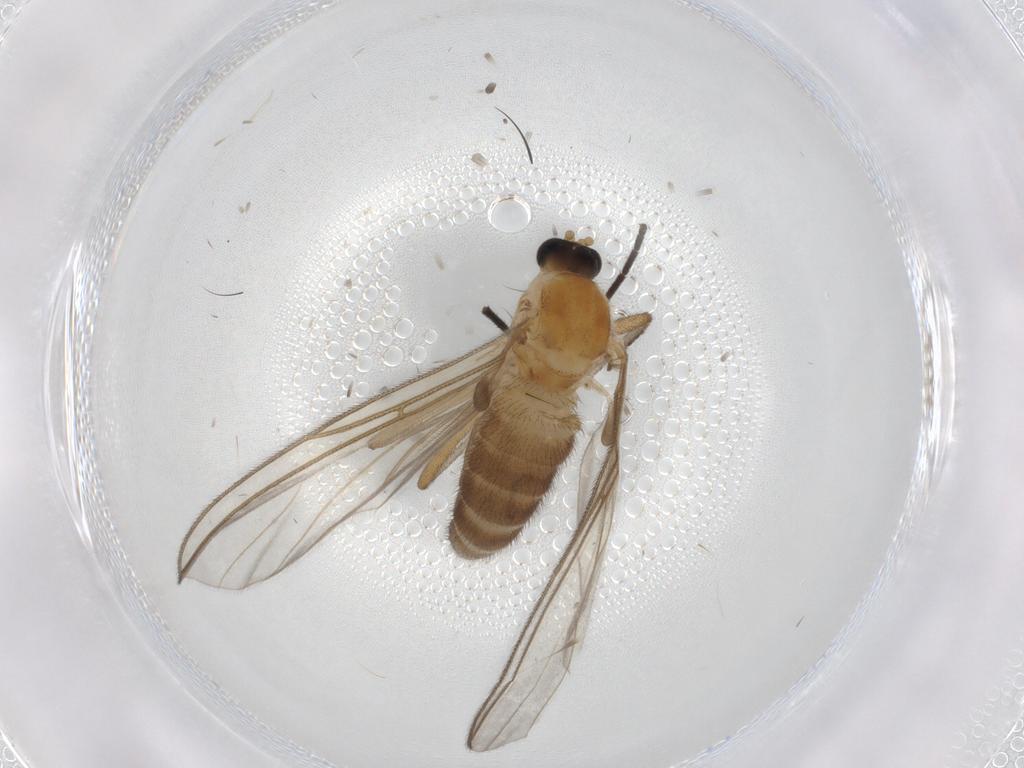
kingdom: Animalia
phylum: Arthropoda
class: Insecta
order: Diptera
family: Sciaridae
